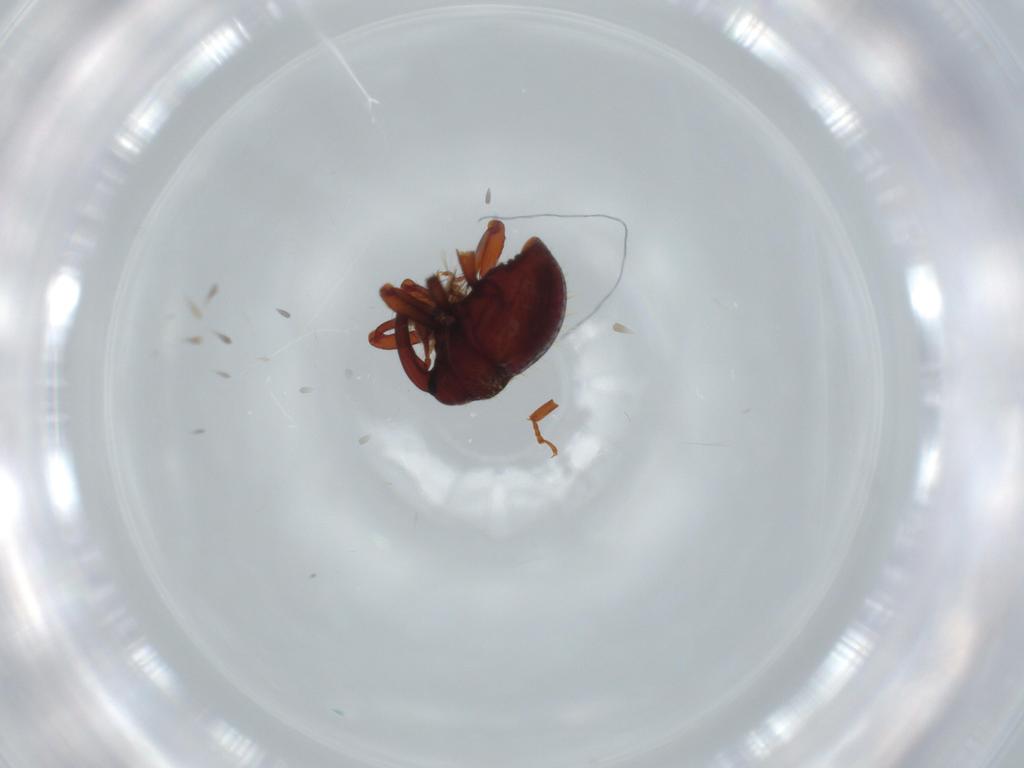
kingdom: Animalia
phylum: Arthropoda
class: Insecta
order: Coleoptera
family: Curculionidae
